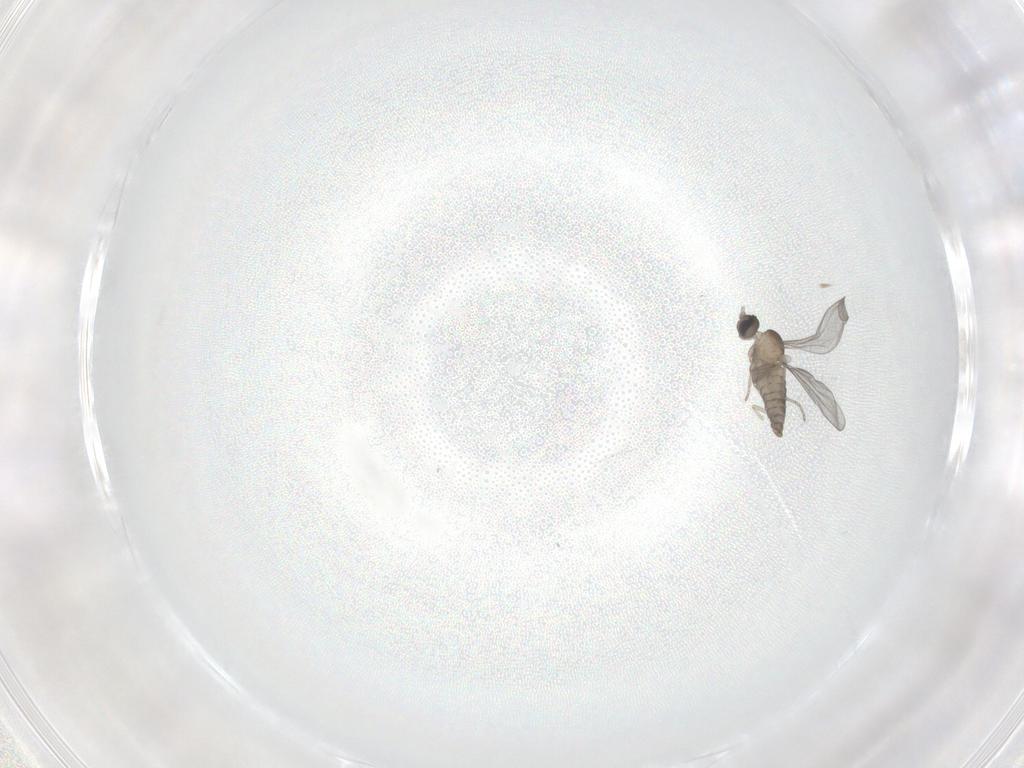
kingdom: Animalia
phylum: Arthropoda
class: Insecta
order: Diptera
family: Cecidomyiidae
